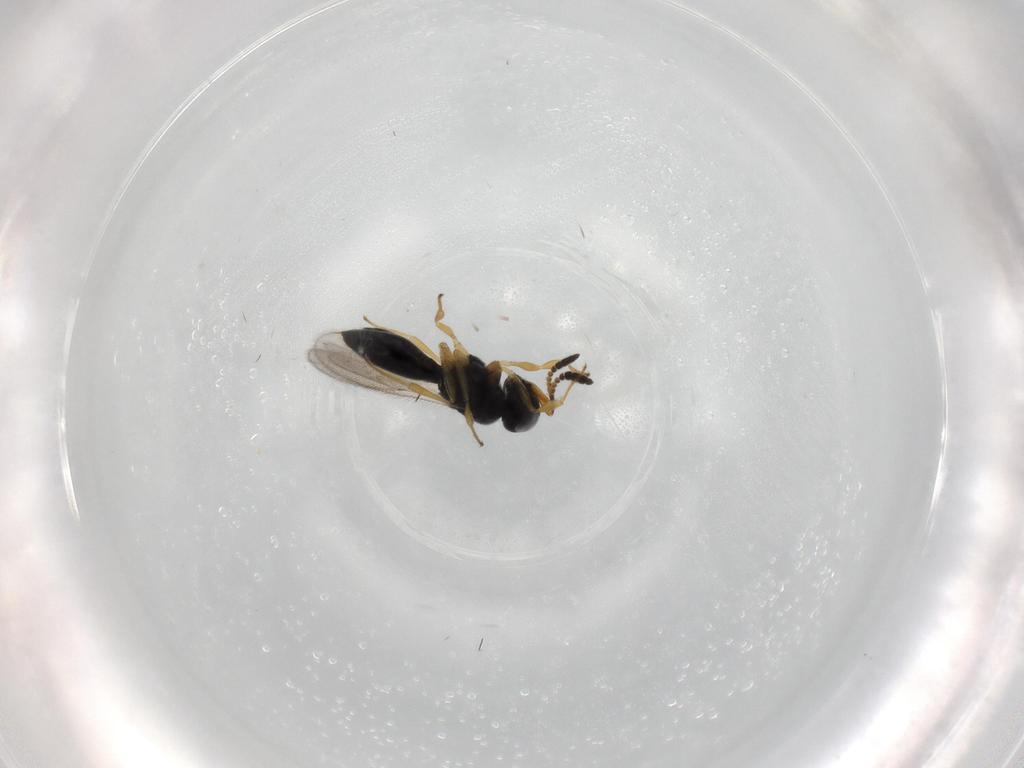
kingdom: Animalia
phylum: Arthropoda
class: Insecta
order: Hymenoptera
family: Scelionidae
